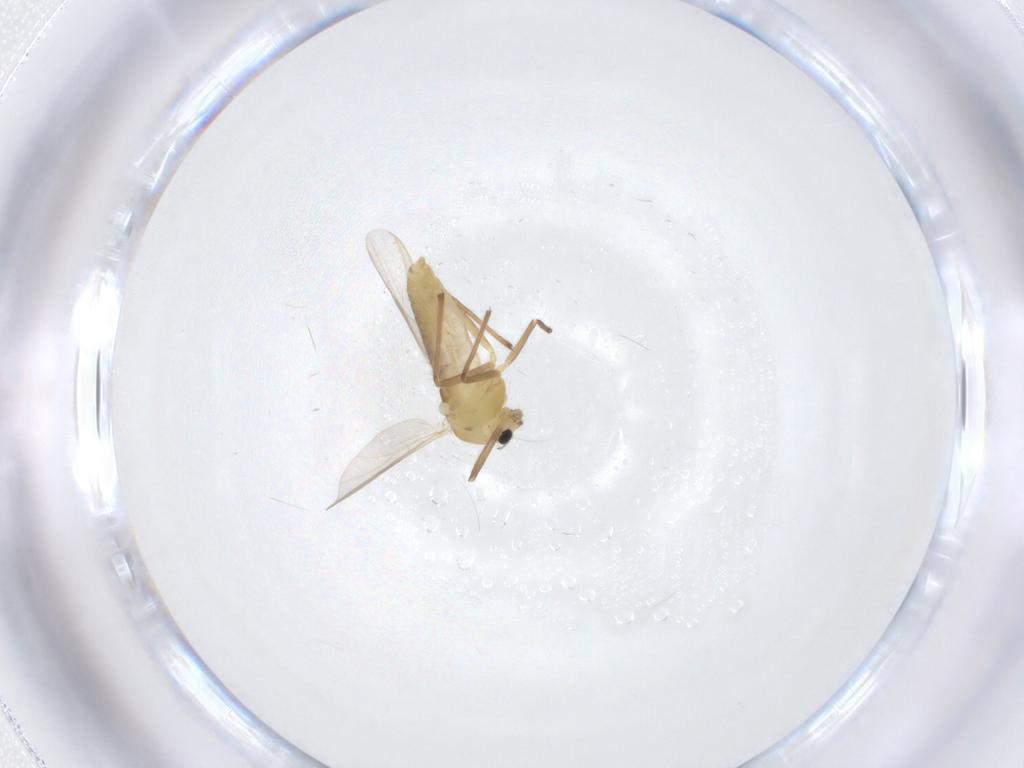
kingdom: Animalia
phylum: Arthropoda
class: Insecta
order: Diptera
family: Chironomidae
